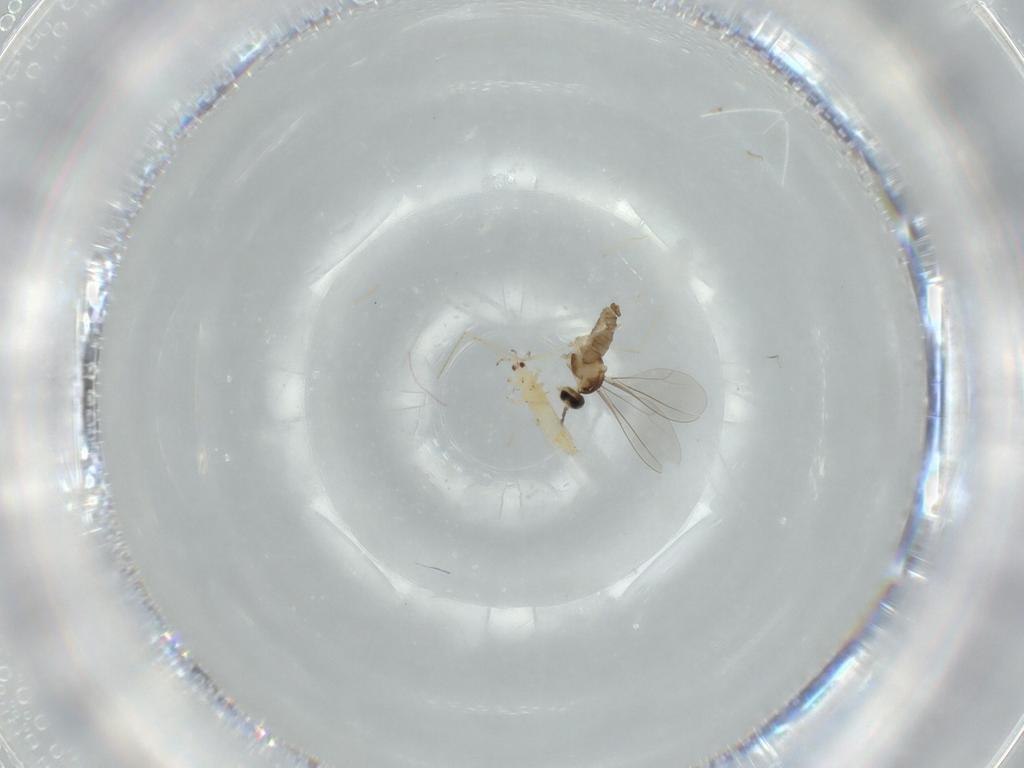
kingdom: Animalia
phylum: Arthropoda
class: Insecta
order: Diptera
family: Cecidomyiidae
